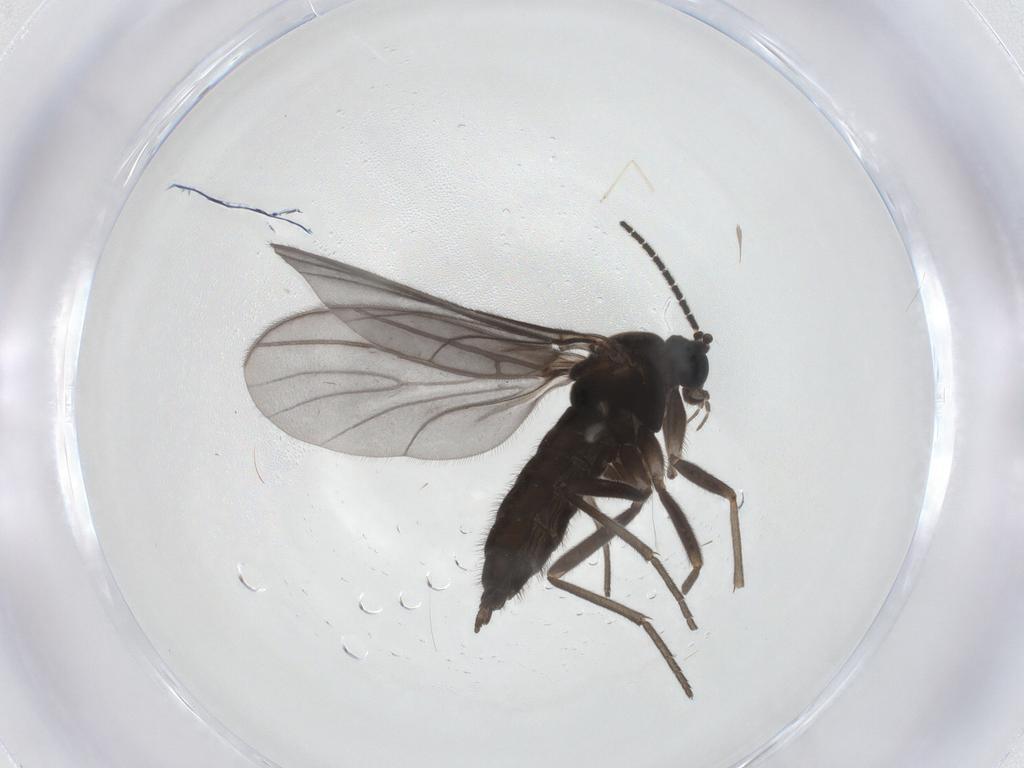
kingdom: Animalia
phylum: Arthropoda
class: Insecta
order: Diptera
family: Sciaridae
